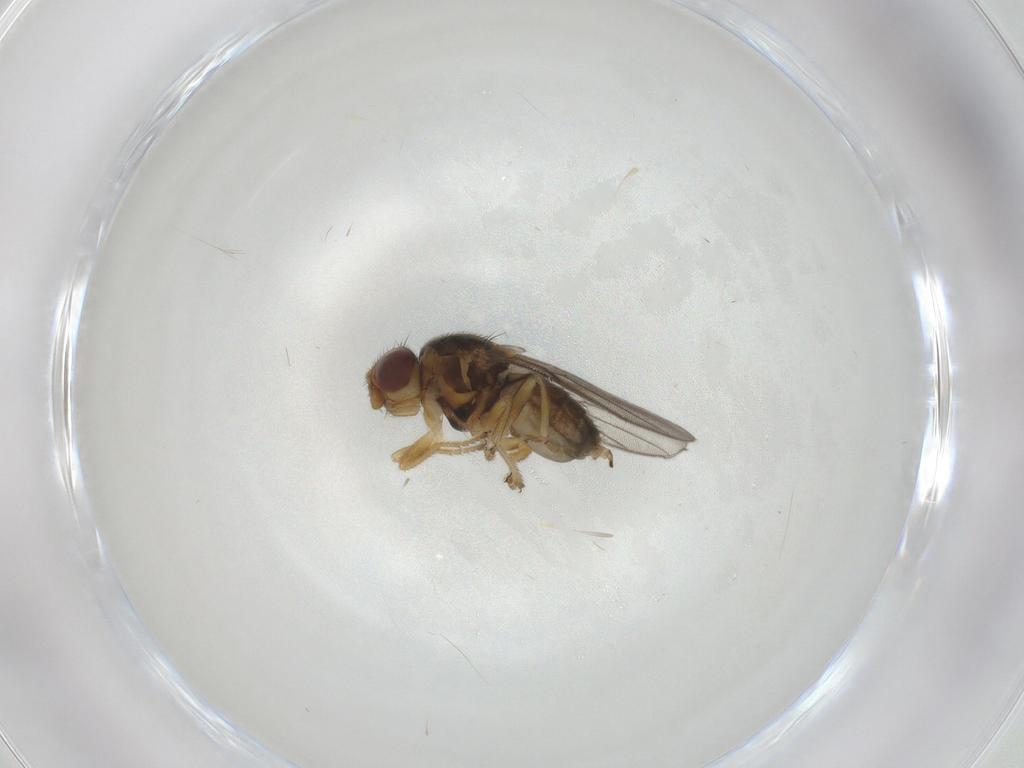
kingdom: Animalia
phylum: Arthropoda
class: Insecta
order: Diptera
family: Chloropidae
